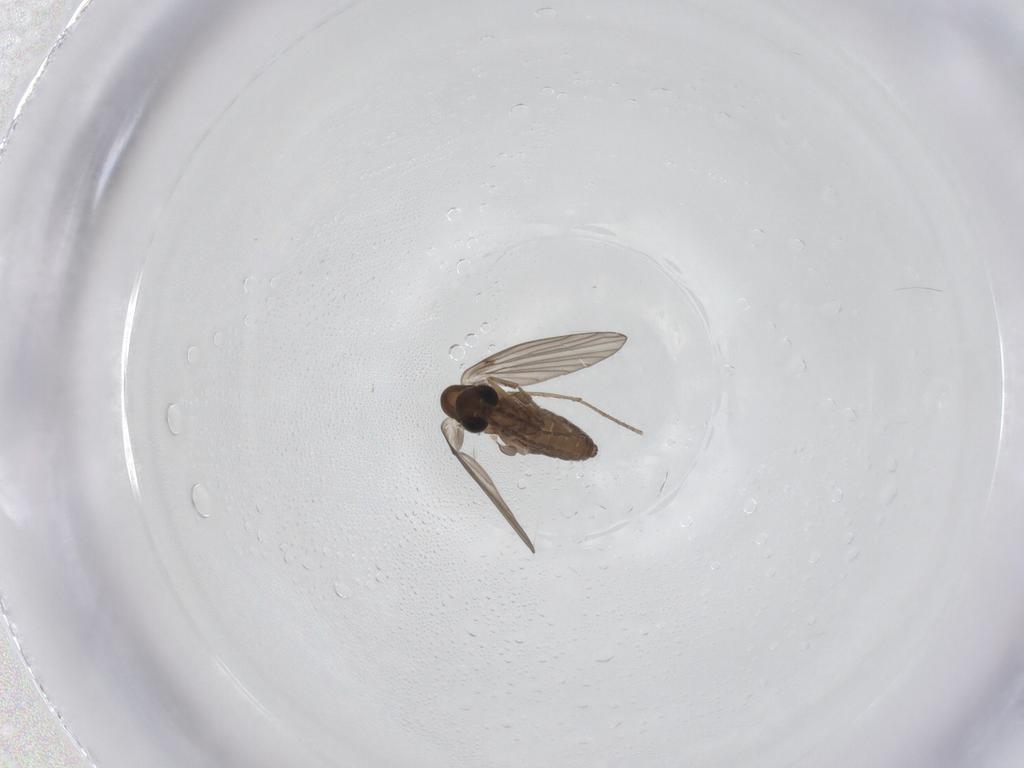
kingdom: Animalia
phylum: Arthropoda
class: Insecta
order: Diptera
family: Psychodidae
